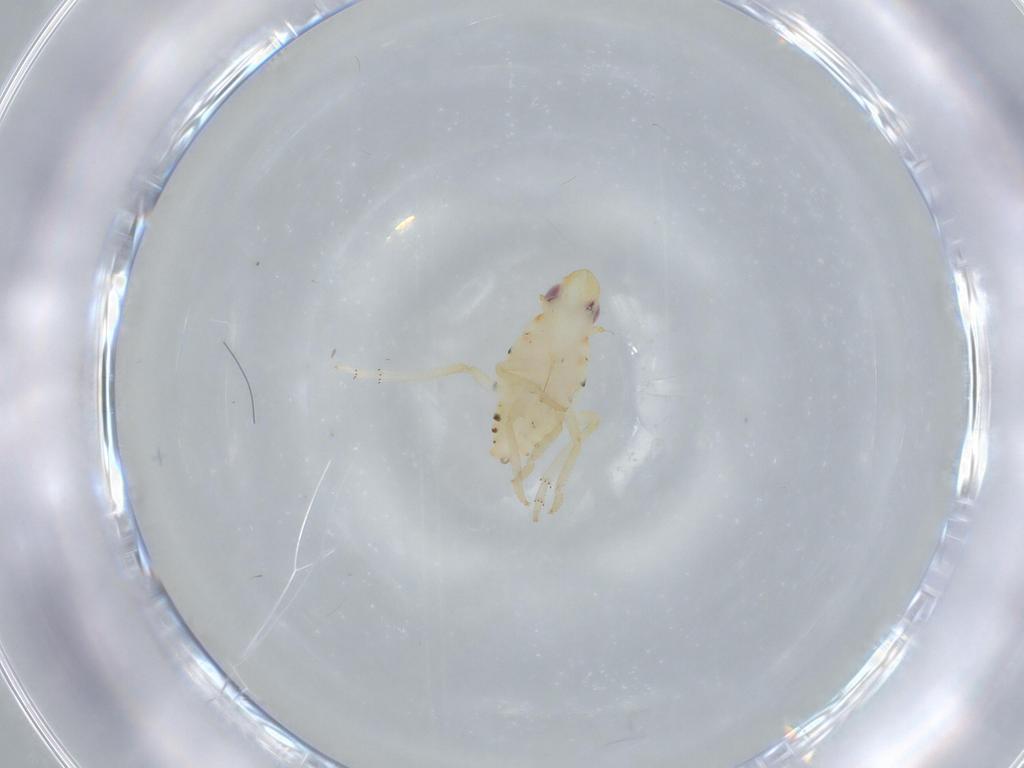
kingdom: Animalia
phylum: Arthropoda
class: Insecta
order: Hemiptera
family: Tropiduchidae
